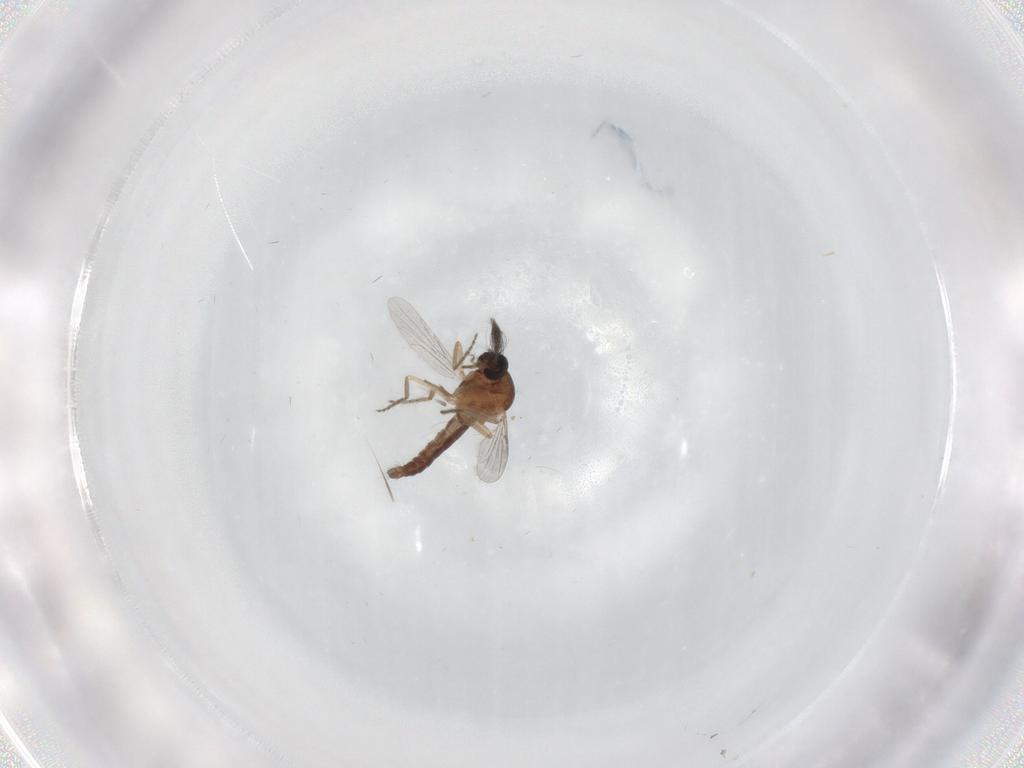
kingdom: Animalia
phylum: Arthropoda
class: Insecta
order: Diptera
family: Ceratopogonidae
